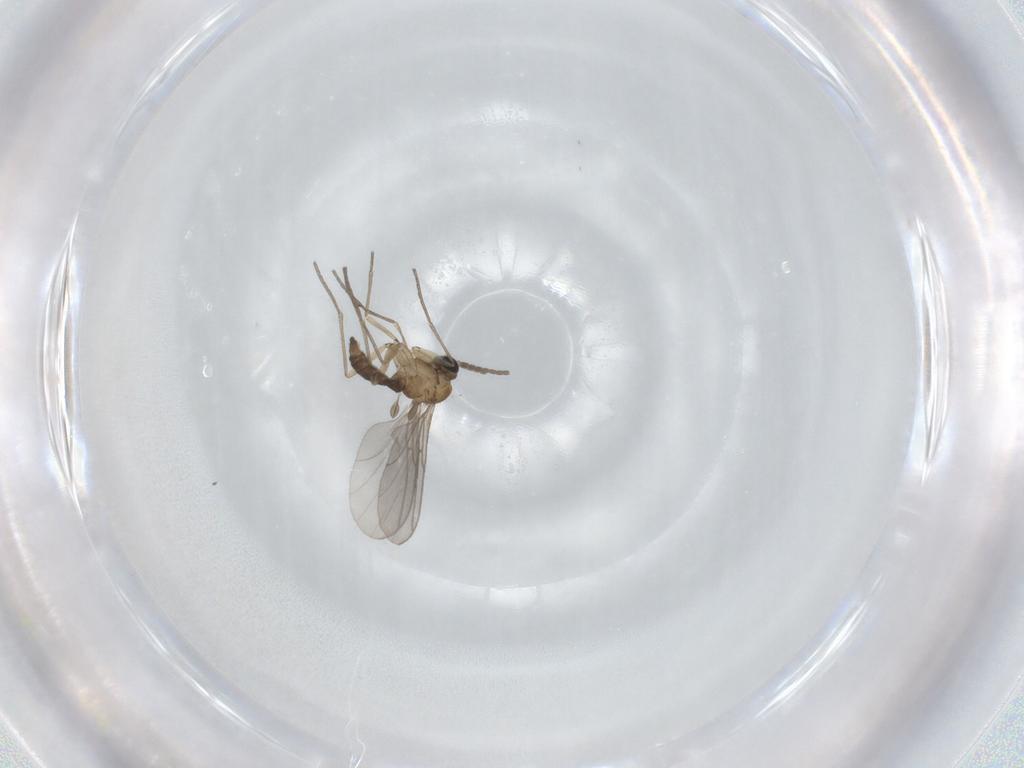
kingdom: Animalia
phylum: Arthropoda
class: Insecta
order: Diptera
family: Sciaridae
